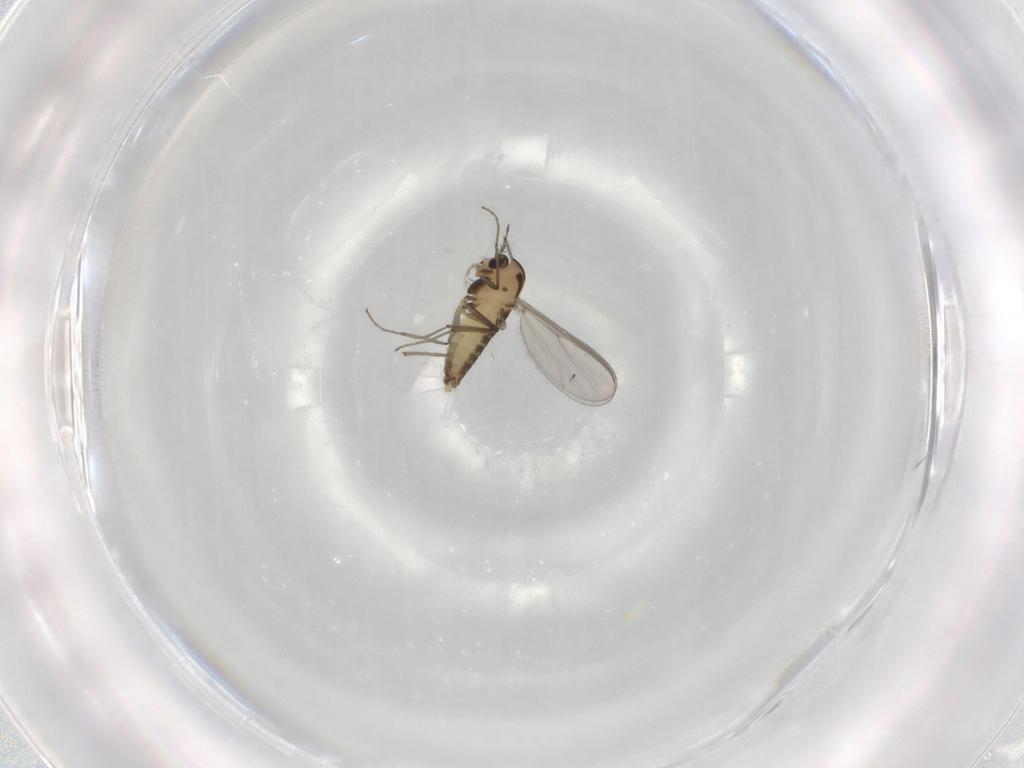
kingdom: Animalia
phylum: Arthropoda
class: Insecta
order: Diptera
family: Chironomidae
